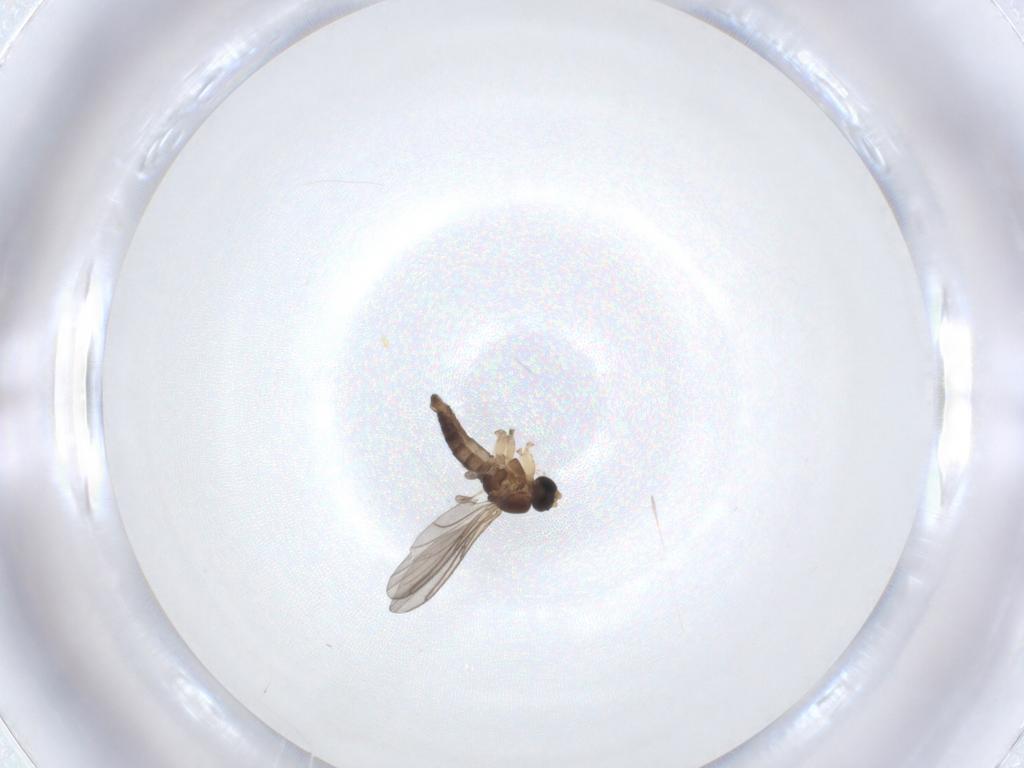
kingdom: Animalia
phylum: Arthropoda
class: Insecta
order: Diptera
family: Sciaridae
